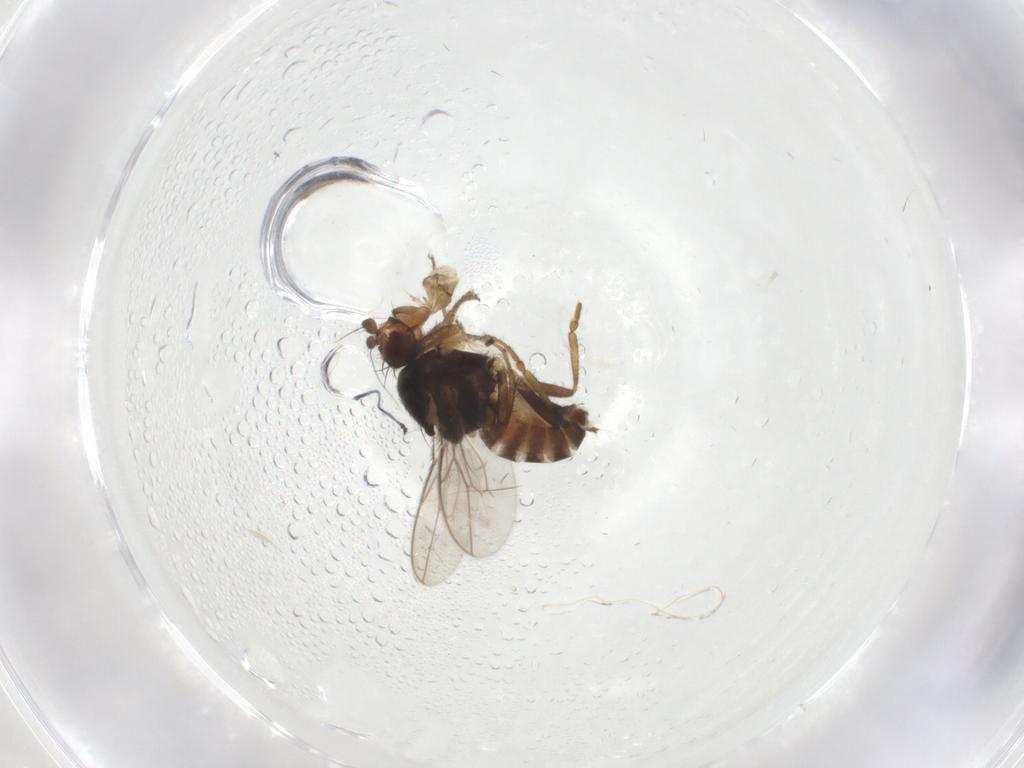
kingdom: Animalia
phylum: Arthropoda
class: Insecta
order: Diptera
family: Sphaeroceridae
